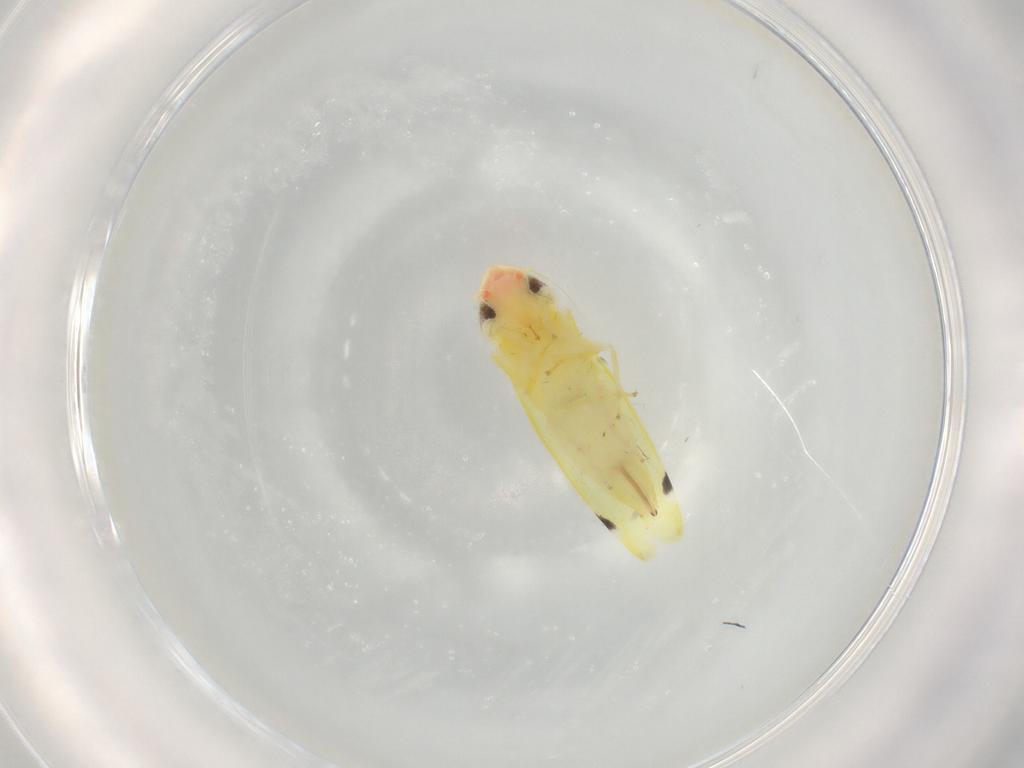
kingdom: Animalia
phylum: Arthropoda
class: Insecta
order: Hemiptera
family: Cicadellidae
